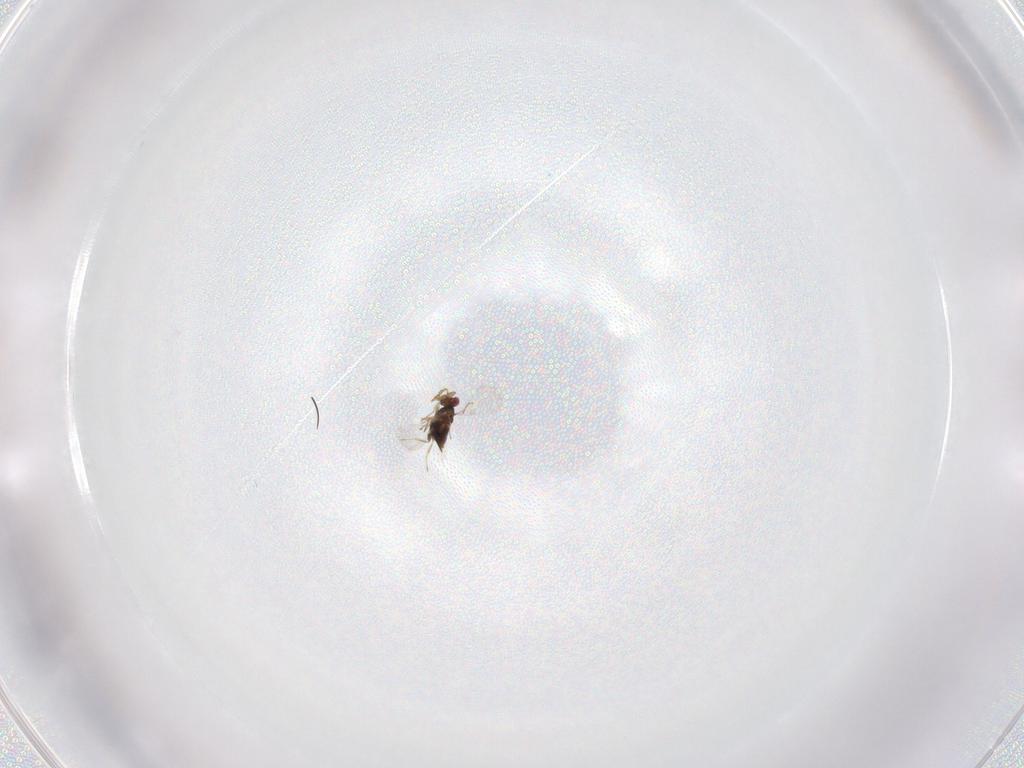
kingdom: Animalia
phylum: Arthropoda
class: Insecta
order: Hymenoptera
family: Trichogrammatidae
